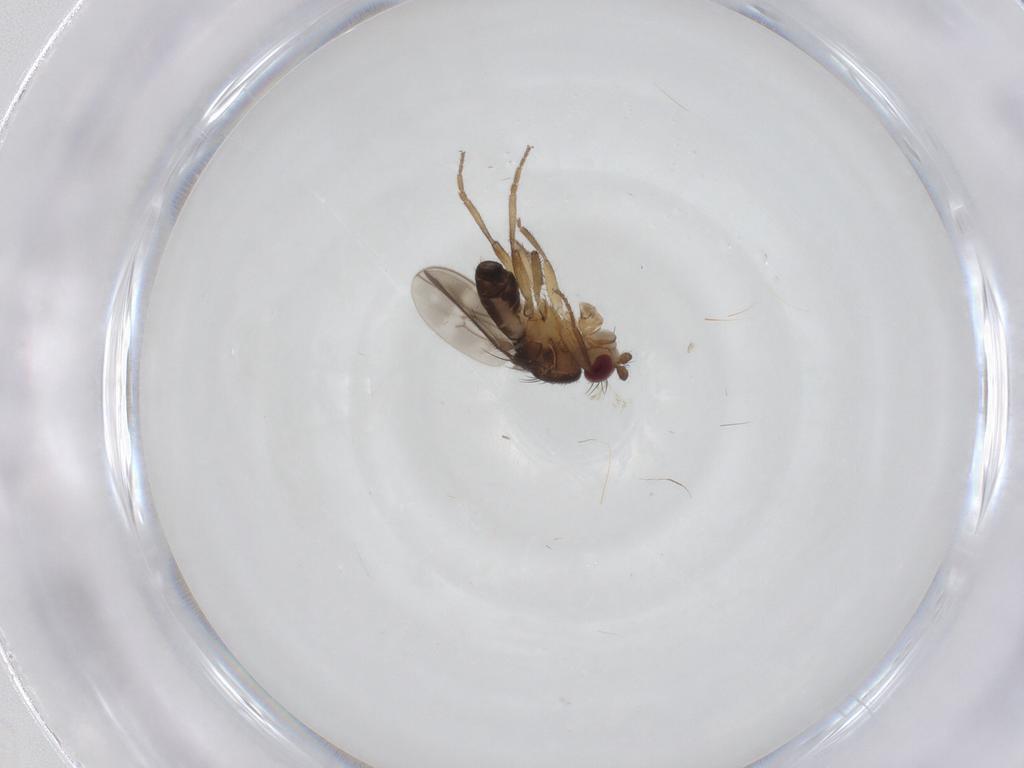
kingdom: Animalia
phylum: Arthropoda
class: Insecta
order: Diptera
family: Sphaeroceridae
